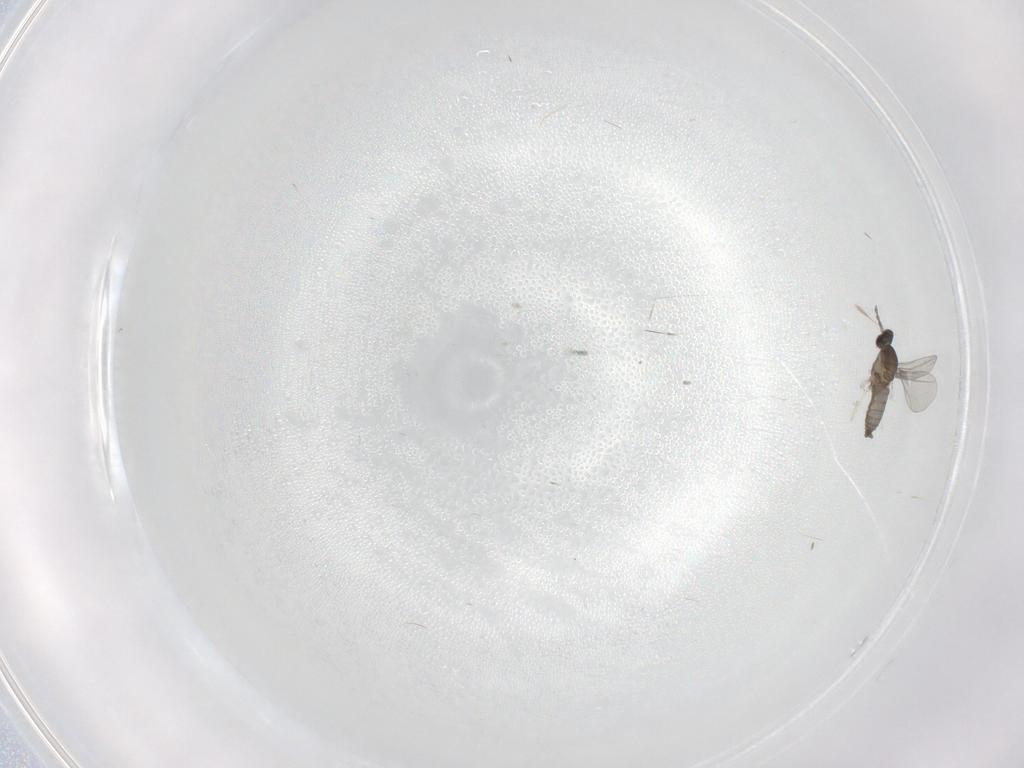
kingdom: Animalia
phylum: Arthropoda
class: Insecta
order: Diptera
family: Cecidomyiidae
